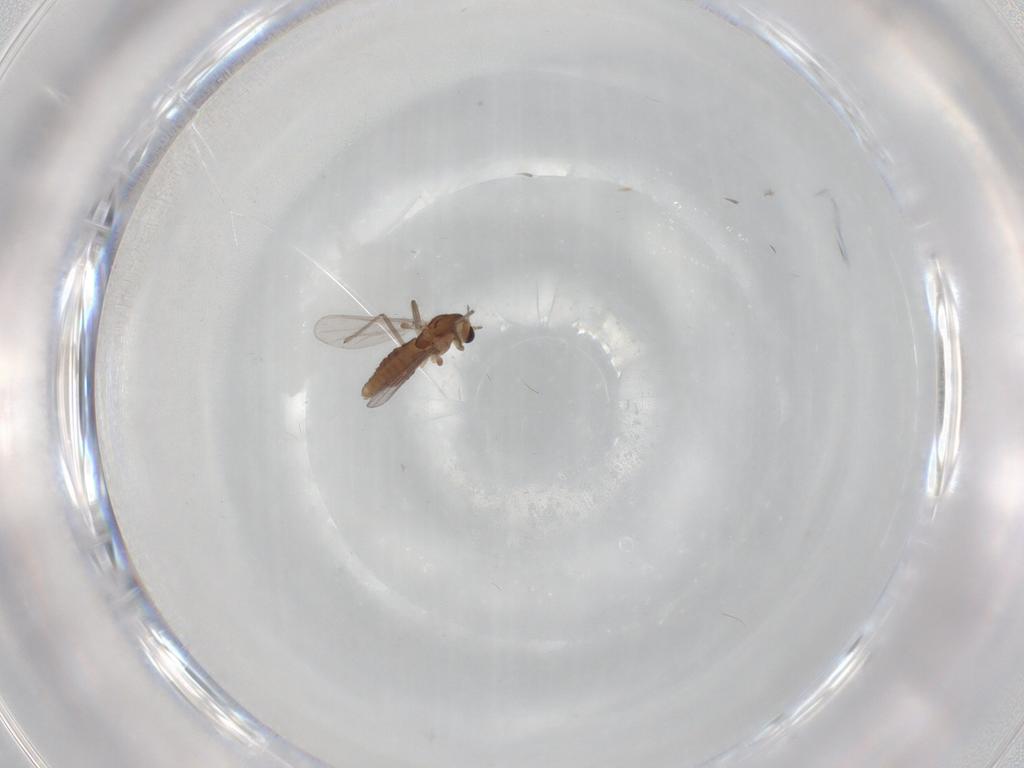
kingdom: Animalia
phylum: Arthropoda
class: Insecta
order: Diptera
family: Chironomidae
